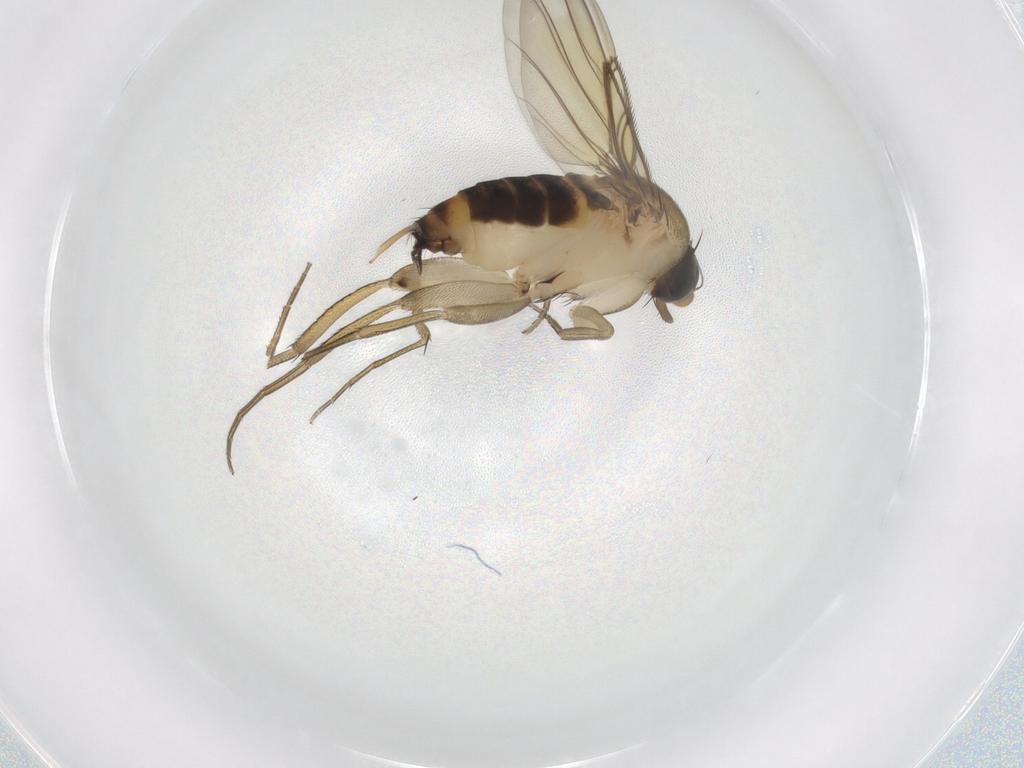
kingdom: Animalia
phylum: Arthropoda
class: Insecta
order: Diptera
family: Phoridae
